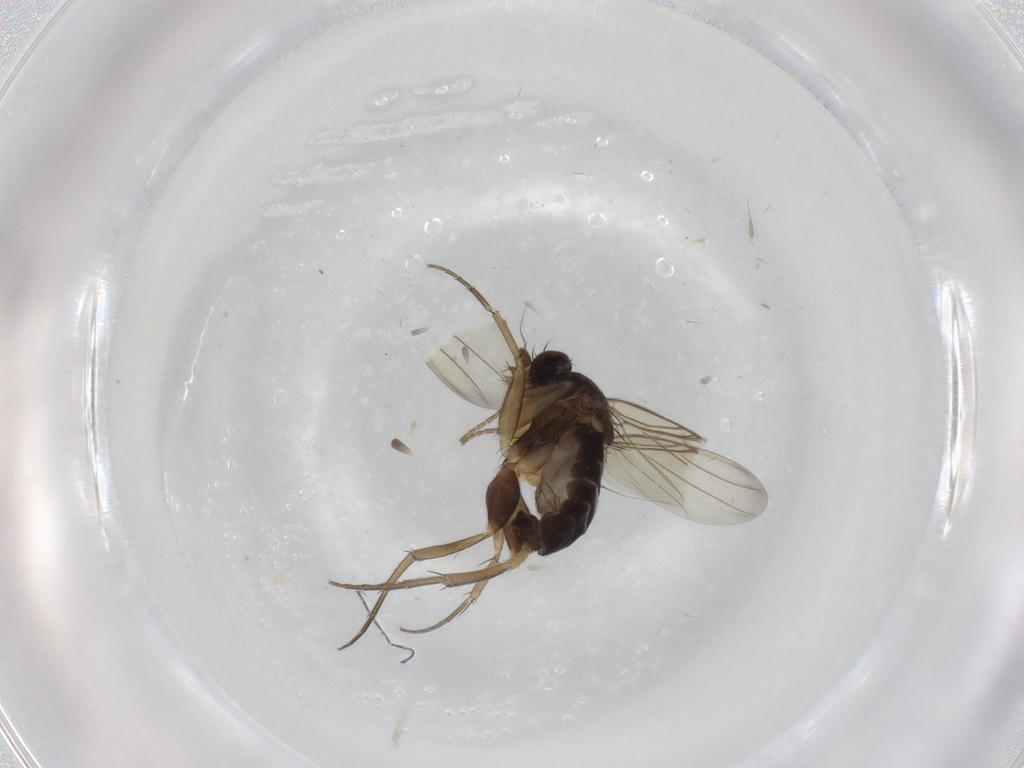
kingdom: Animalia
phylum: Arthropoda
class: Insecta
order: Diptera
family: Phoridae
